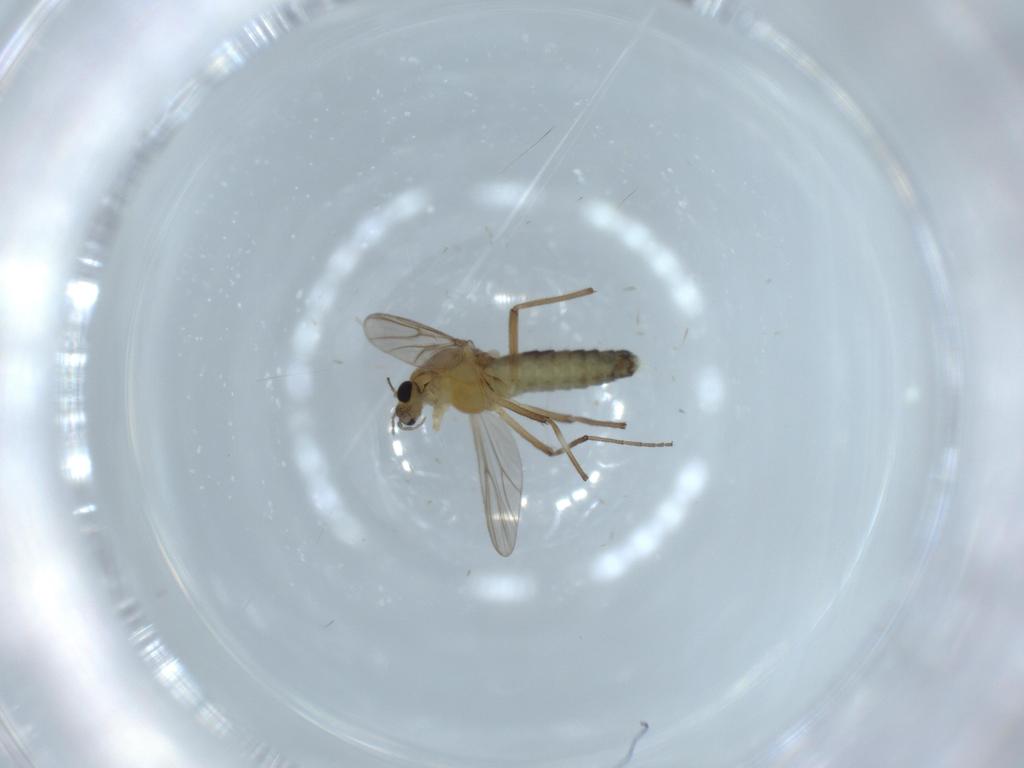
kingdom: Animalia
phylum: Arthropoda
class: Insecta
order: Diptera
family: Chironomidae
